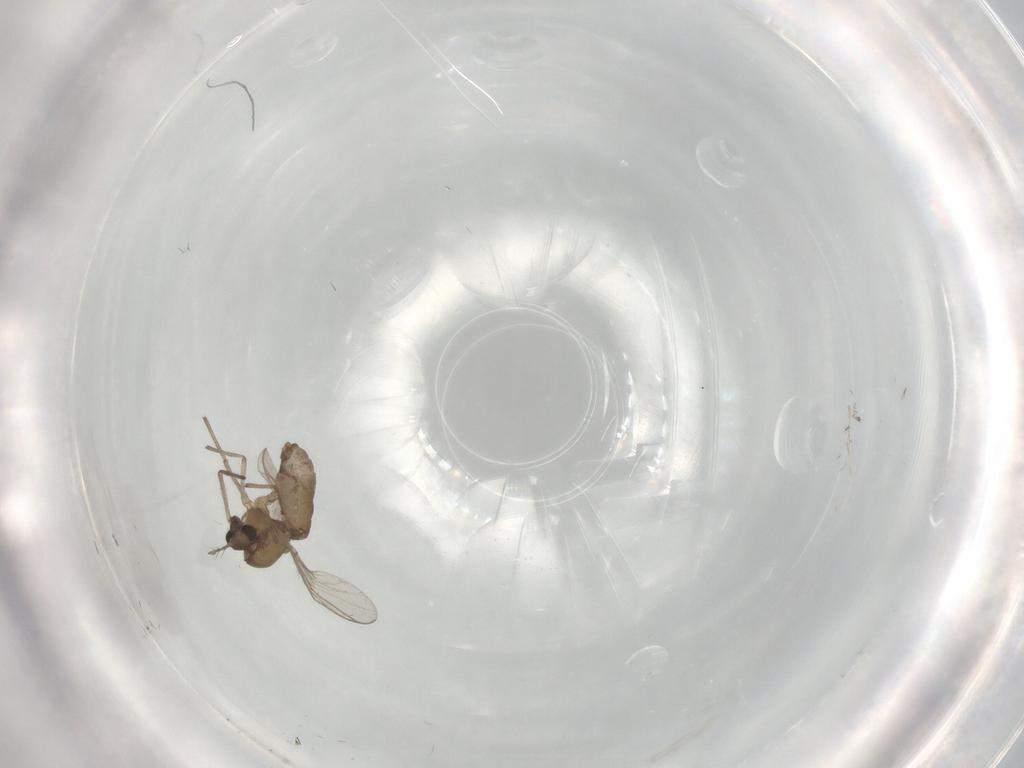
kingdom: Animalia
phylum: Arthropoda
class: Insecta
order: Diptera
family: Chironomidae
